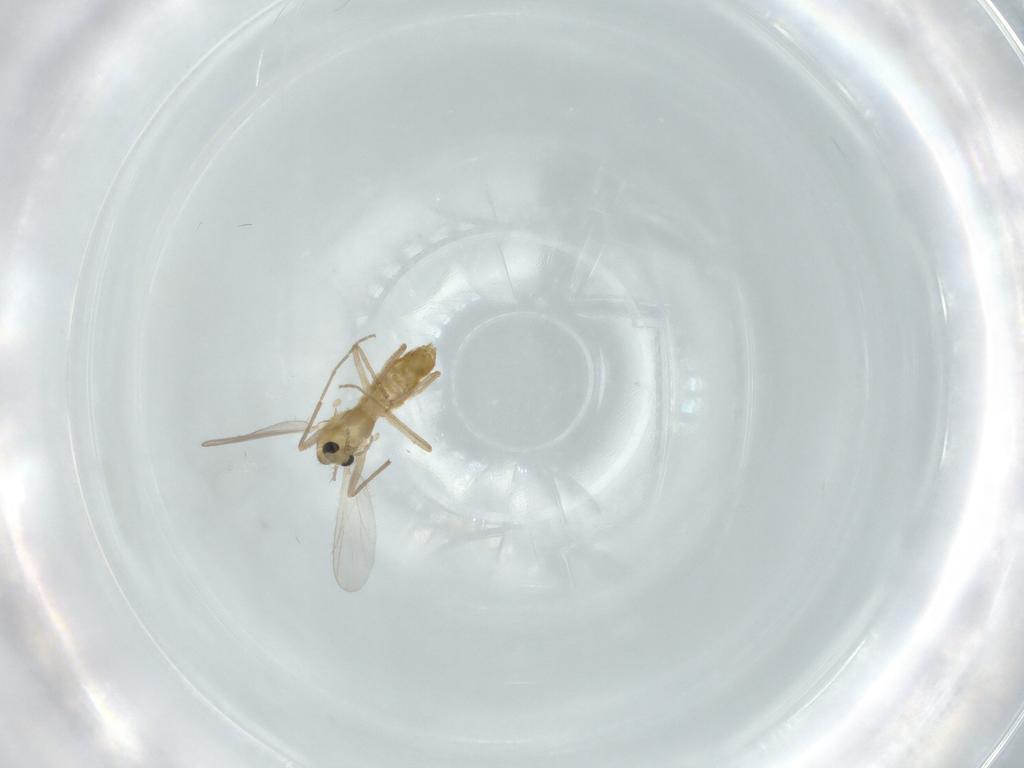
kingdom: Animalia
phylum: Arthropoda
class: Insecta
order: Diptera
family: Chironomidae
